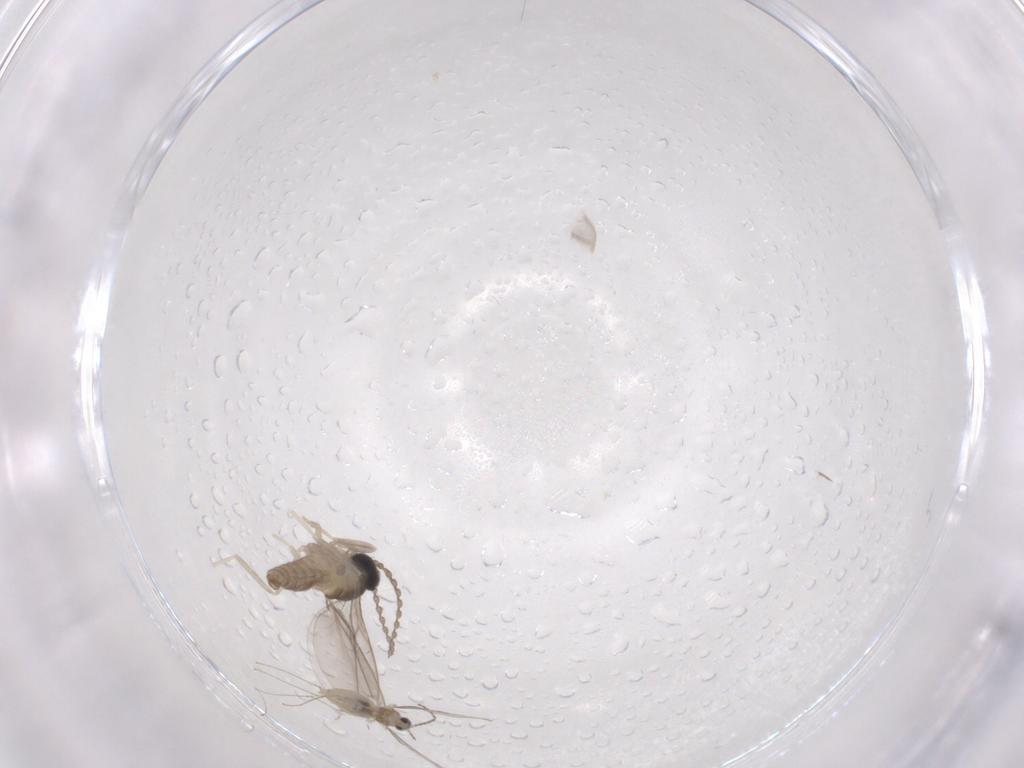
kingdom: Animalia
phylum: Arthropoda
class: Insecta
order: Diptera
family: Cecidomyiidae
